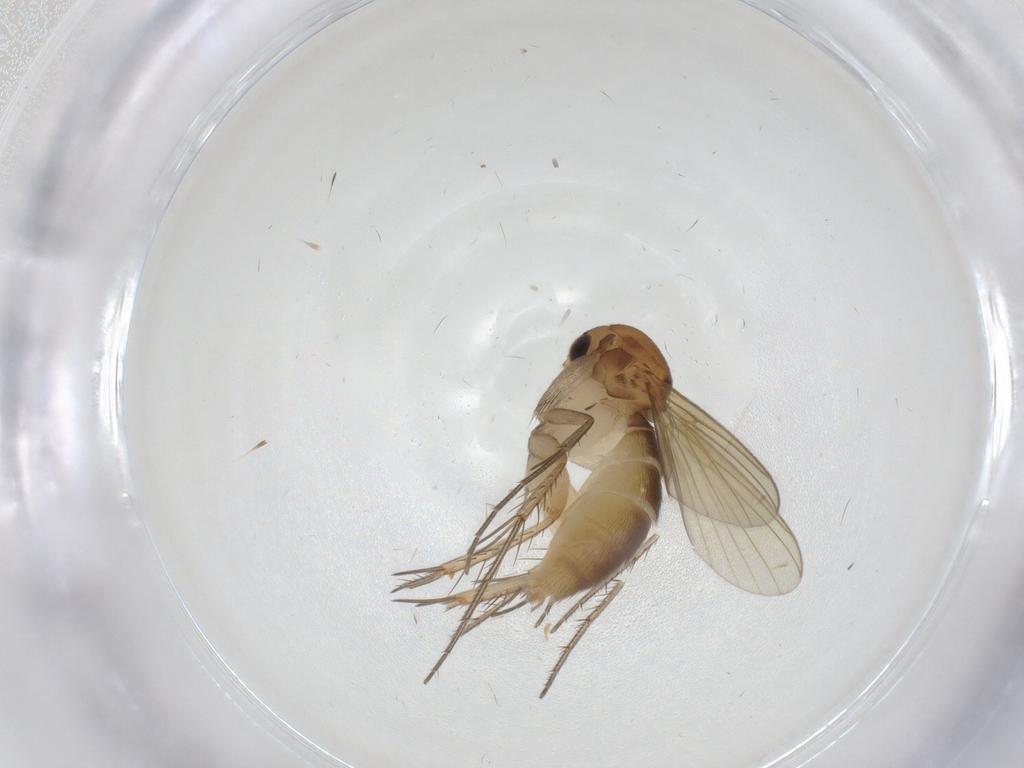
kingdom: Animalia
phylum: Arthropoda
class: Insecta
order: Diptera
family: Mycetophilidae
